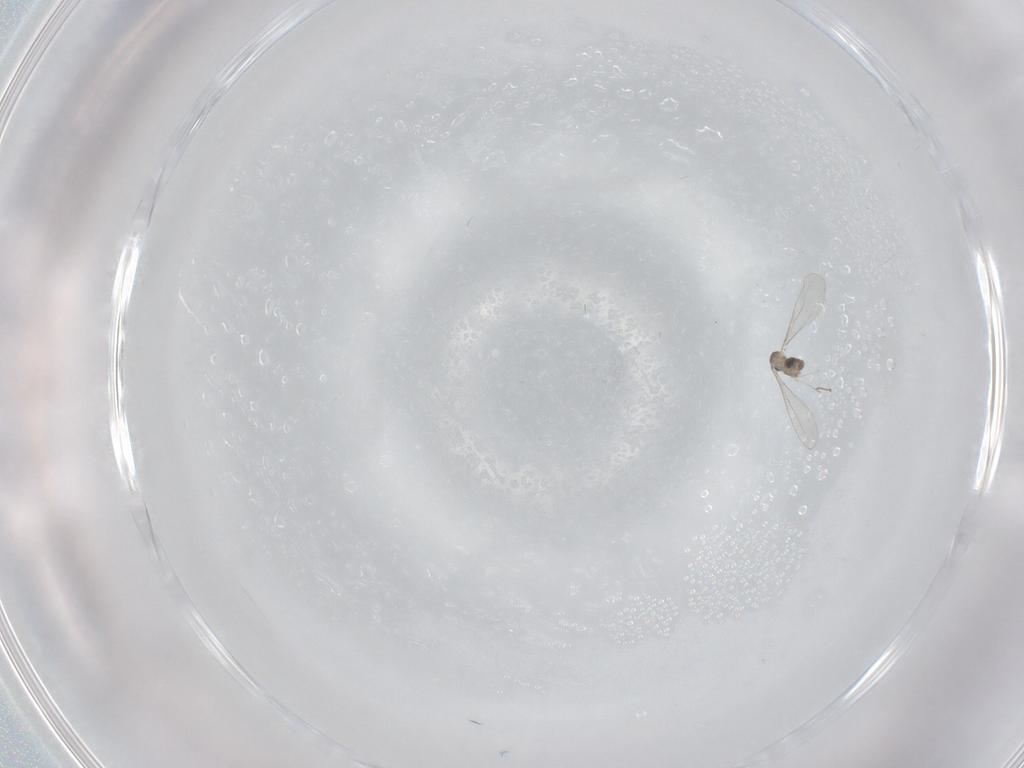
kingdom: Animalia
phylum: Arthropoda
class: Insecta
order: Diptera
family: Cecidomyiidae
